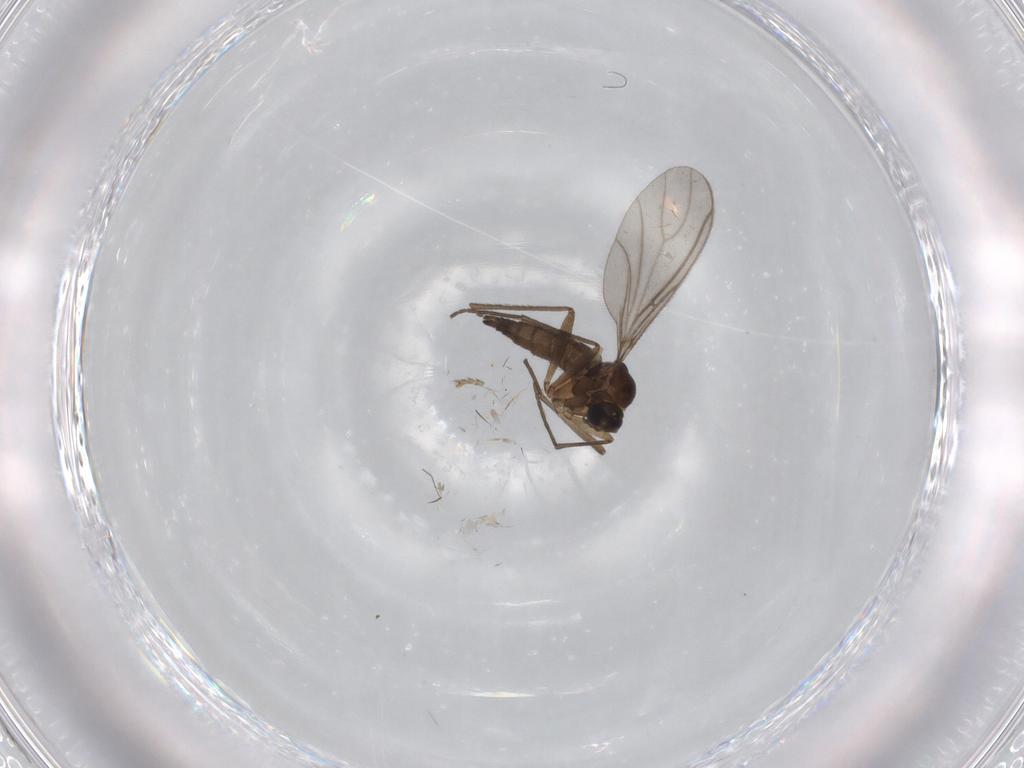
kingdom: Animalia
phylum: Arthropoda
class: Insecta
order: Diptera
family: Sciaridae
